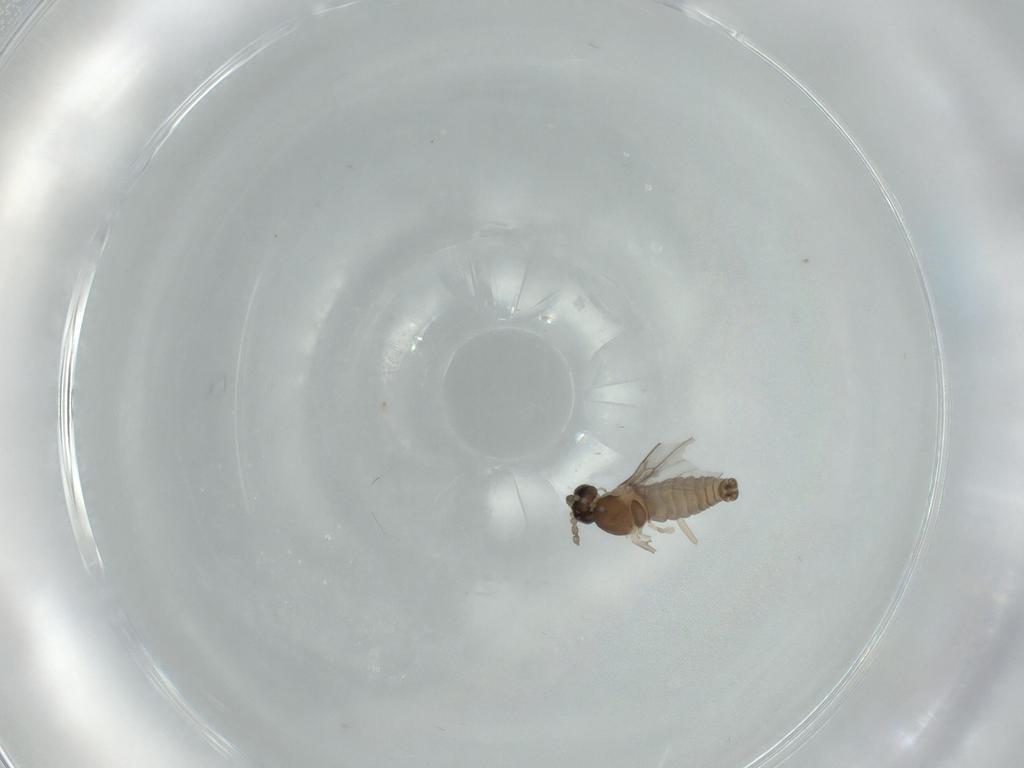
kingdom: Animalia
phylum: Arthropoda
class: Insecta
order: Diptera
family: Cecidomyiidae
